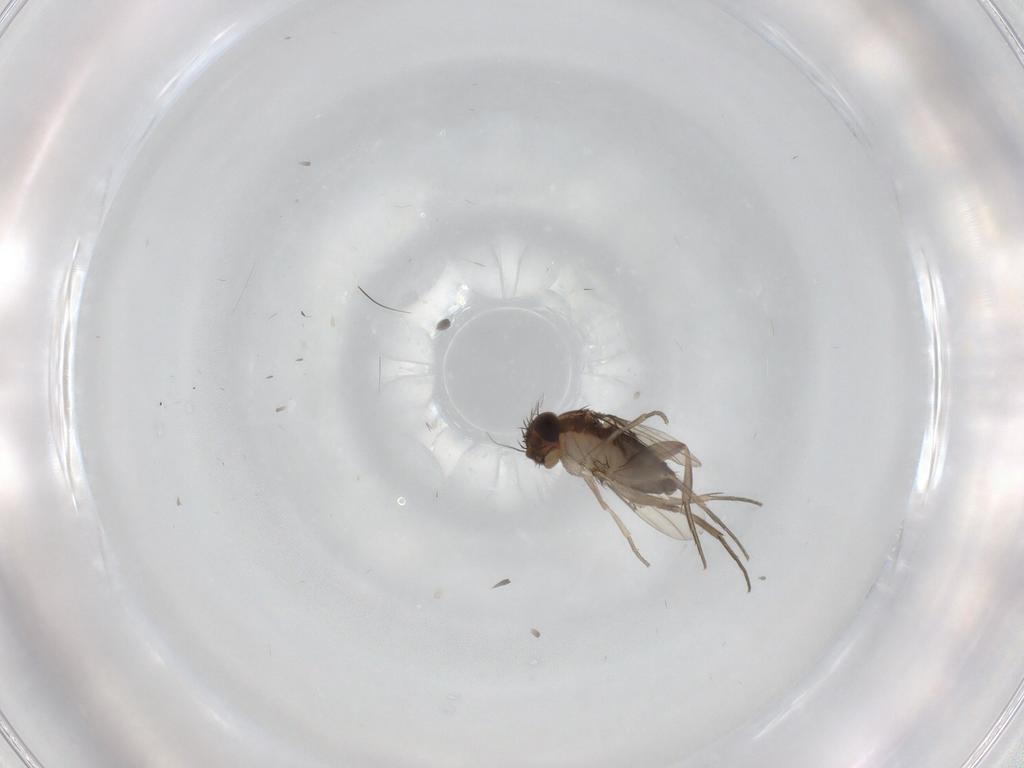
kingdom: Animalia
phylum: Arthropoda
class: Insecta
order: Diptera
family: Phoridae
